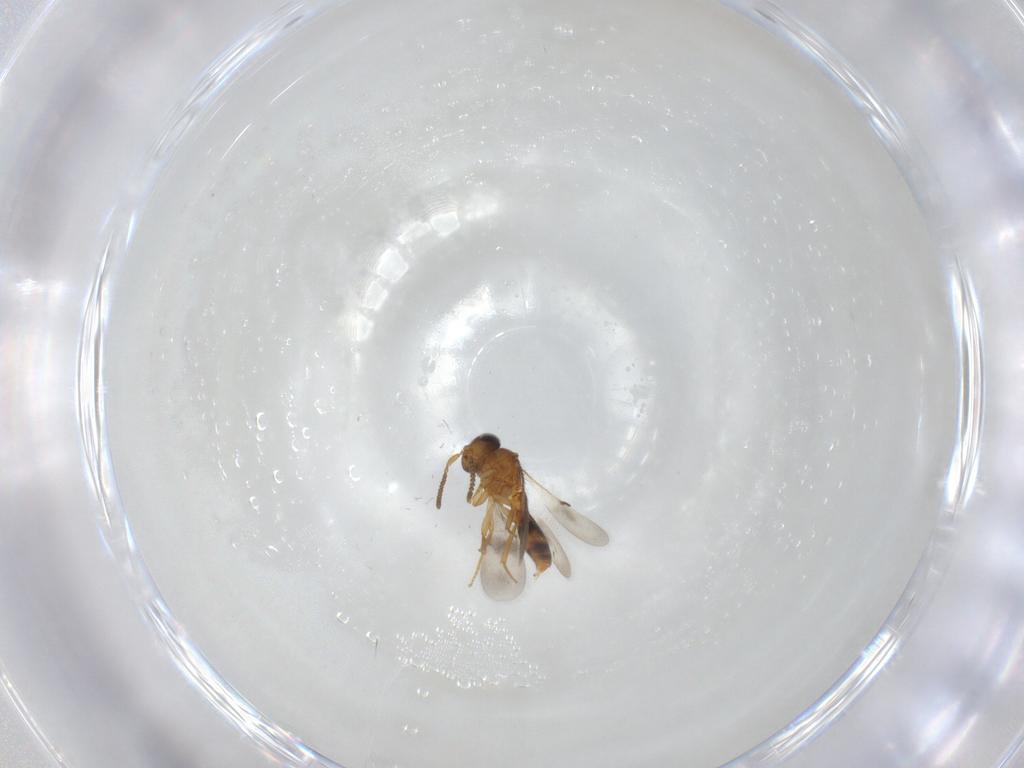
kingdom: Animalia
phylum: Arthropoda
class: Insecta
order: Hymenoptera
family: Scelionidae
